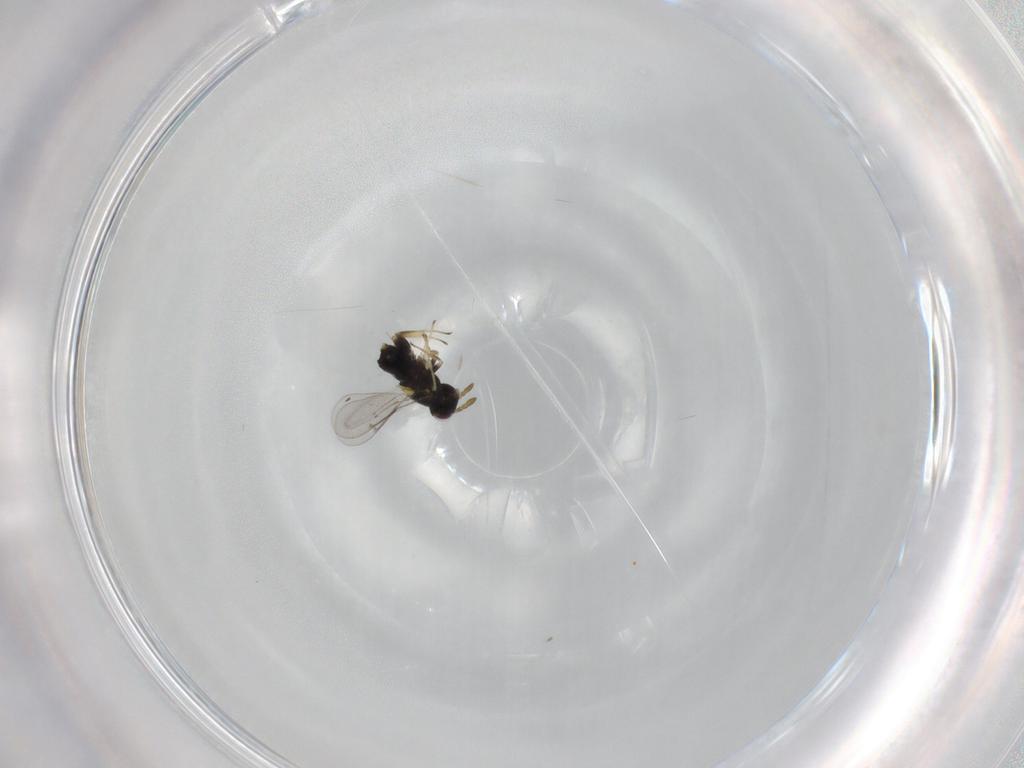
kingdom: Animalia
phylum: Arthropoda
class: Insecta
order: Hymenoptera
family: Aphelinidae
